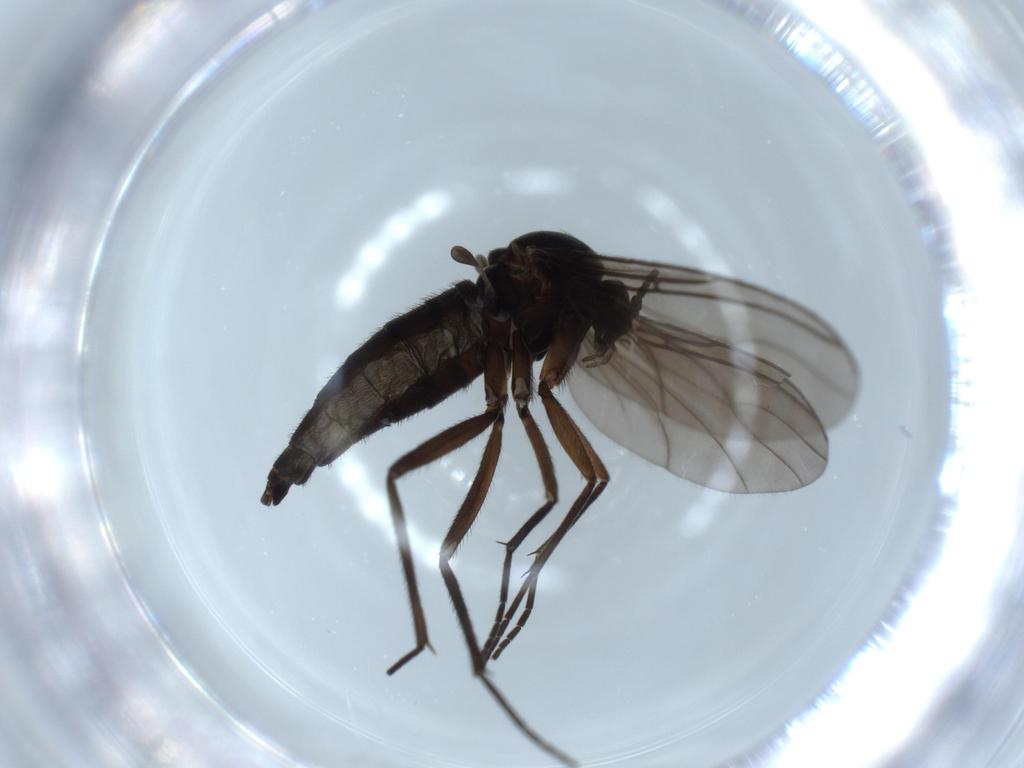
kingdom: Animalia
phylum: Arthropoda
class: Insecta
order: Diptera
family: Sciaridae
